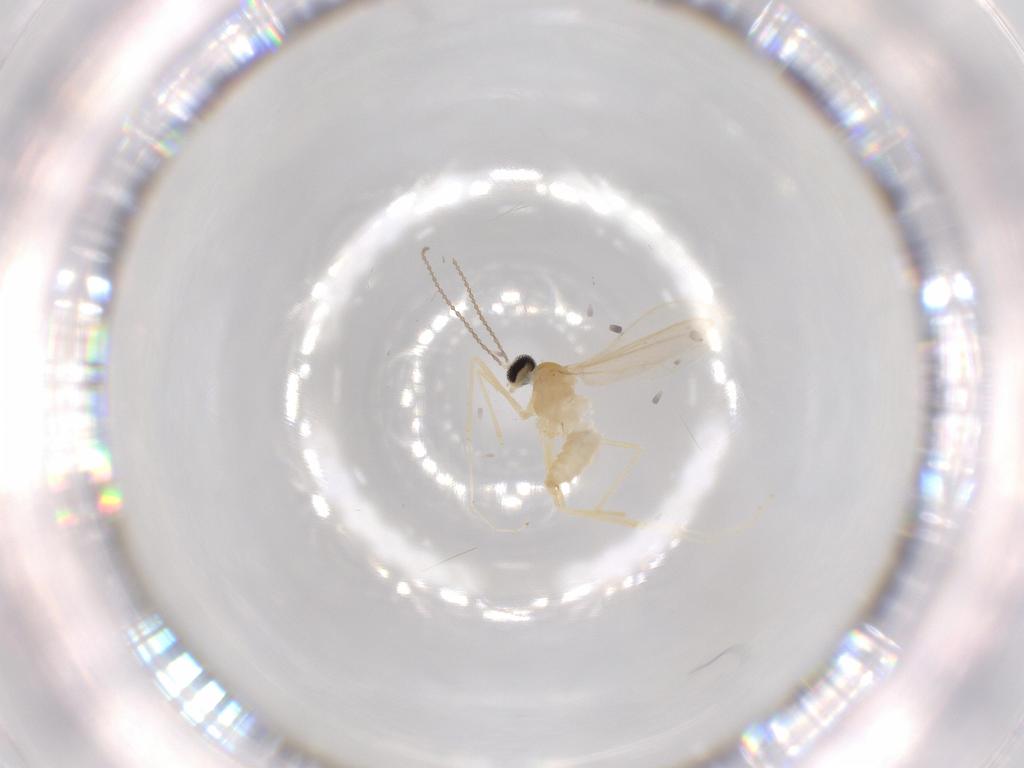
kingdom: Animalia
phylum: Arthropoda
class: Insecta
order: Diptera
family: Cecidomyiidae
